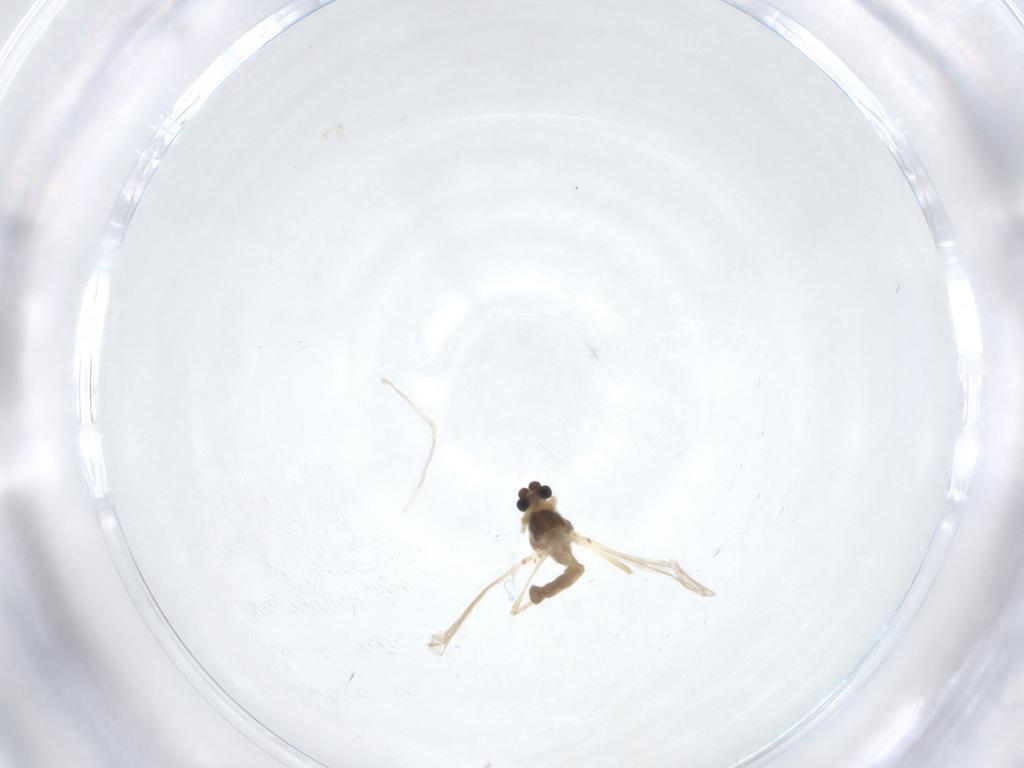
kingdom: Animalia
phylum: Arthropoda
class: Insecta
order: Diptera
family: Chironomidae
